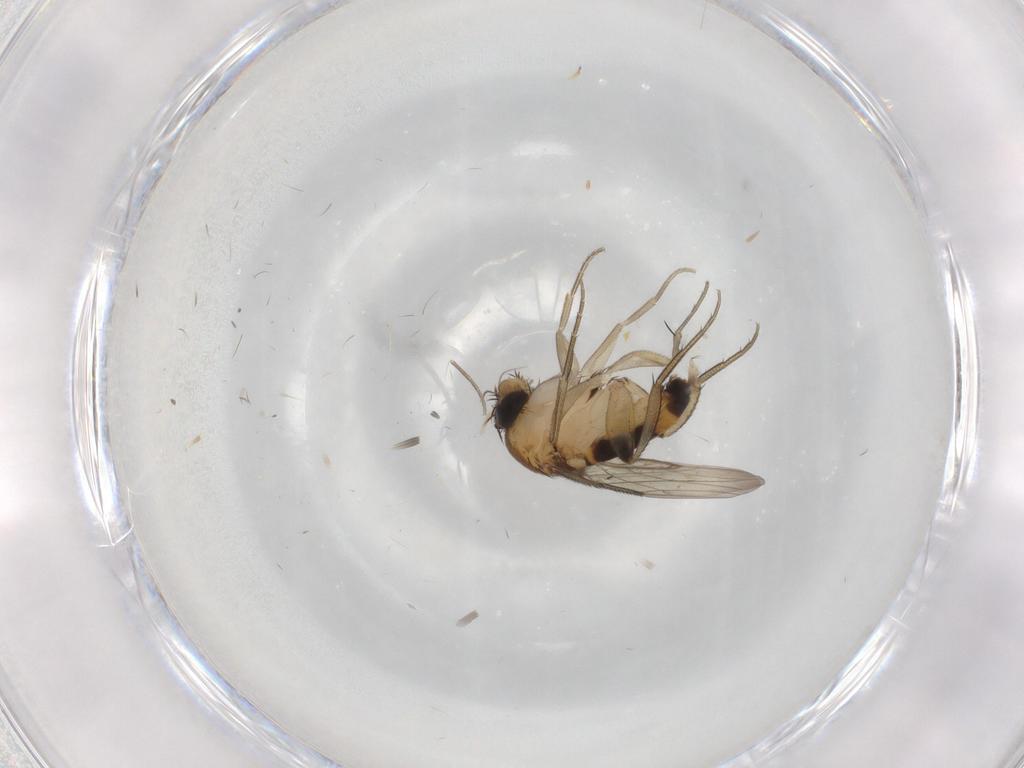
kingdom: Animalia
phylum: Arthropoda
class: Insecta
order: Diptera
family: Phoridae
